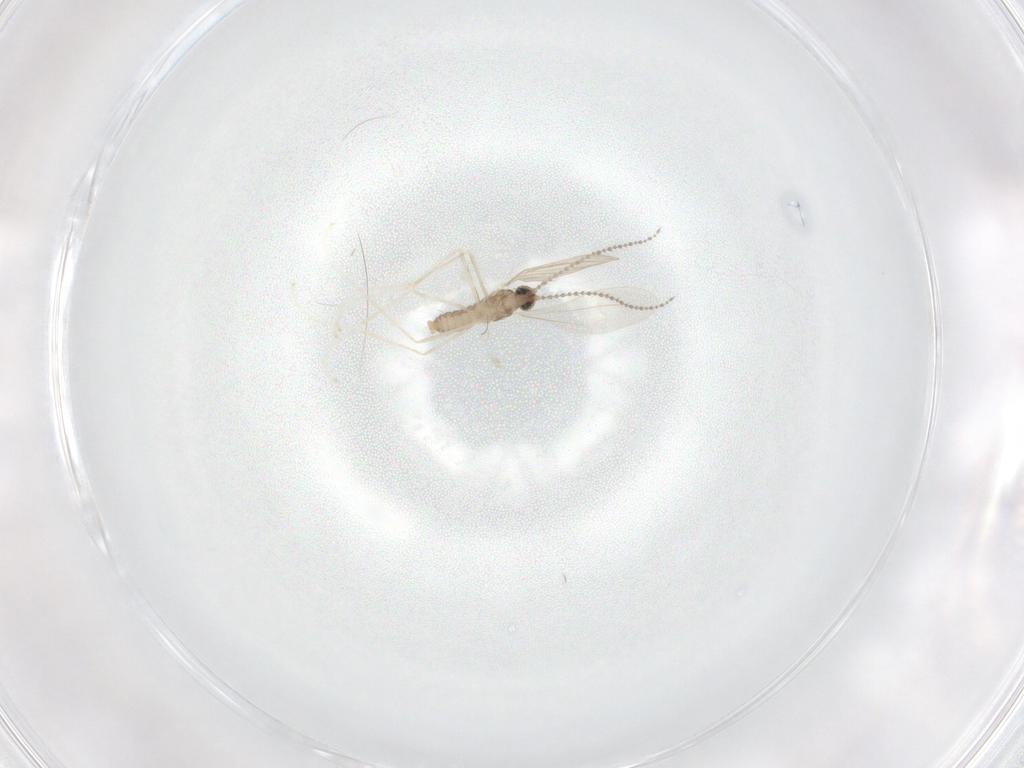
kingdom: Animalia
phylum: Arthropoda
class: Insecta
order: Diptera
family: Cecidomyiidae
